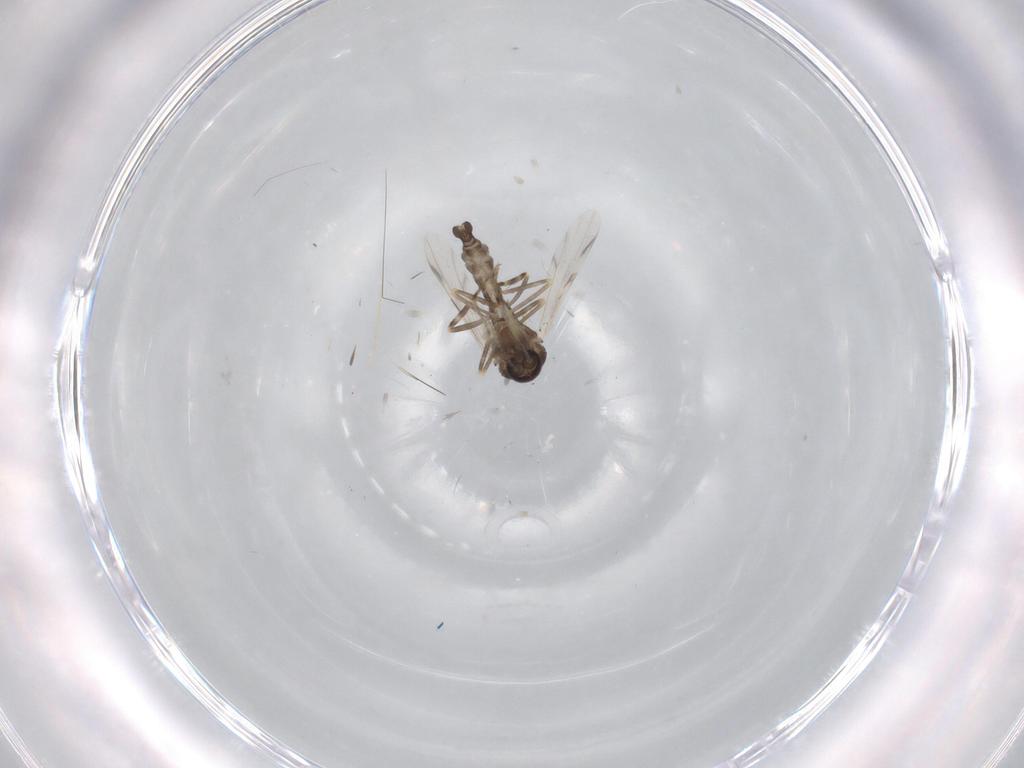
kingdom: Animalia
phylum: Arthropoda
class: Insecta
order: Diptera
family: Ceratopogonidae
